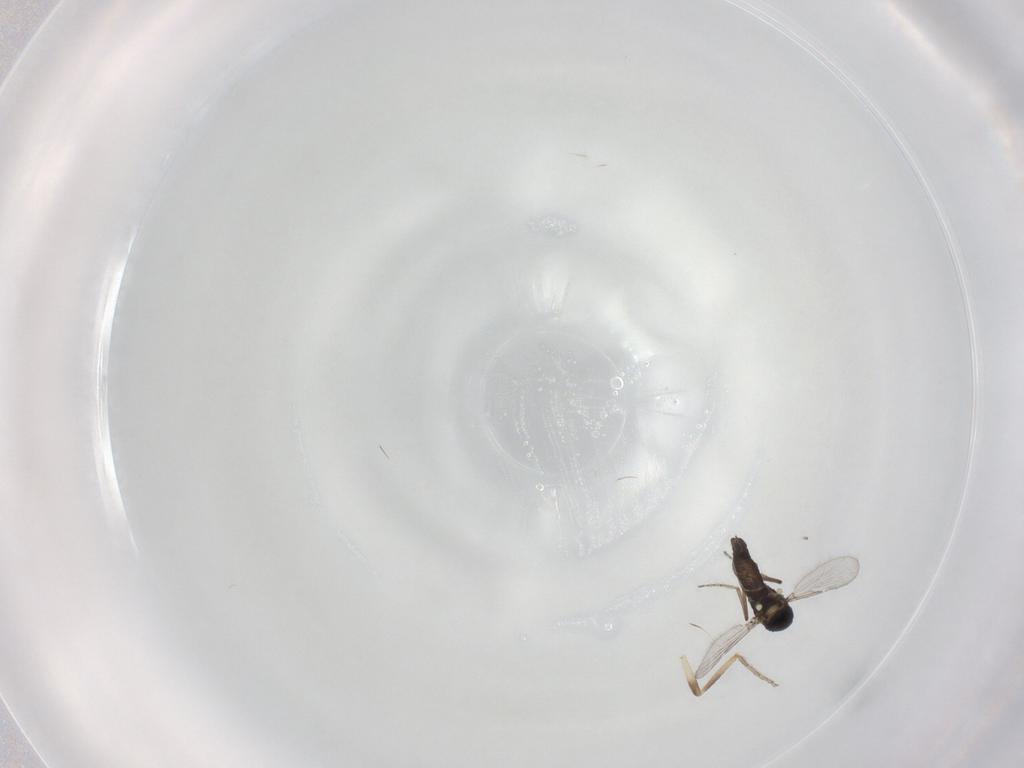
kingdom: Animalia
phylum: Arthropoda
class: Insecta
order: Diptera
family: Ceratopogonidae
